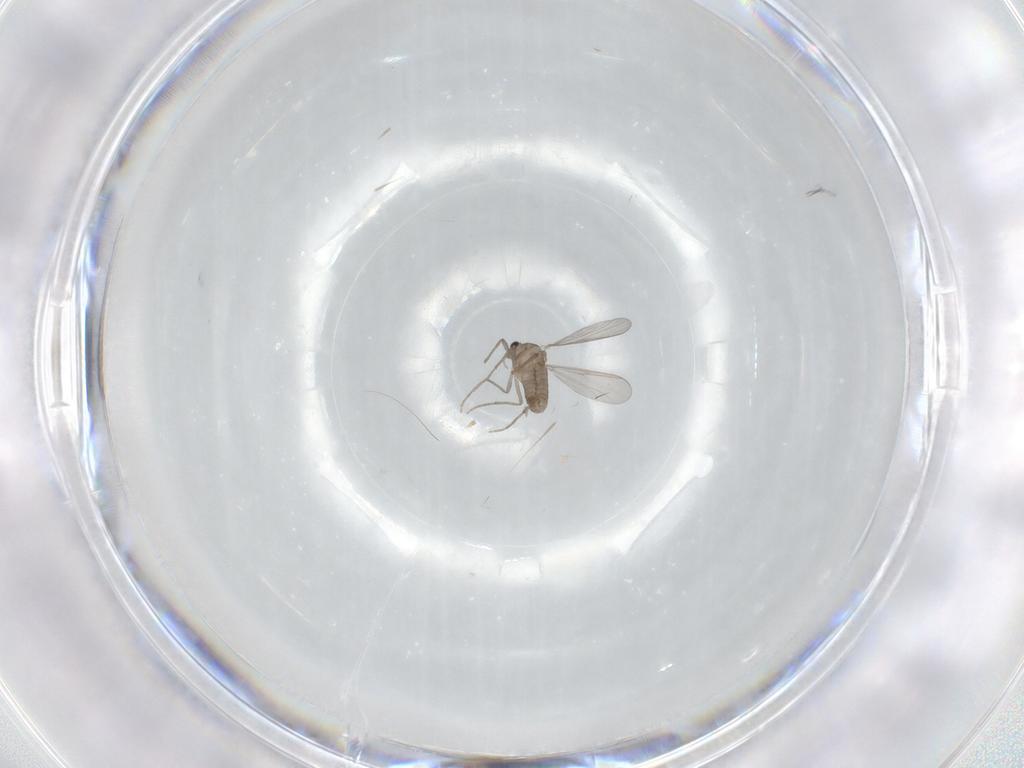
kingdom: Animalia
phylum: Arthropoda
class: Insecta
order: Diptera
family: Chironomidae
